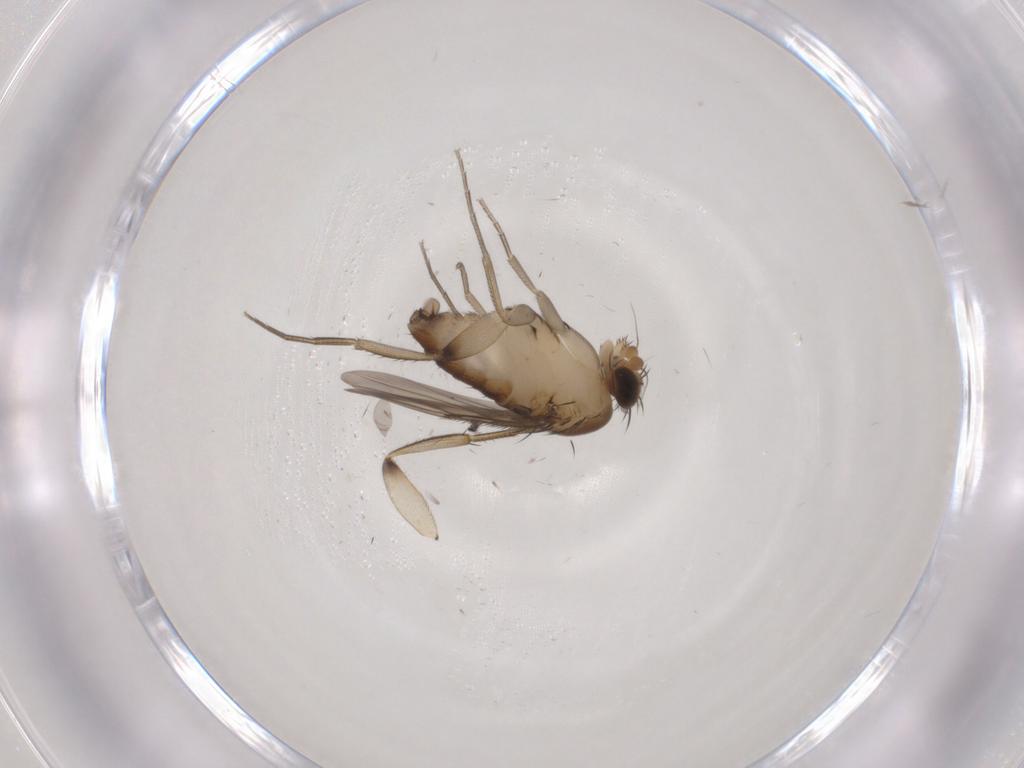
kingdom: Animalia
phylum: Arthropoda
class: Insecta
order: Diptera
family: Phoridae
